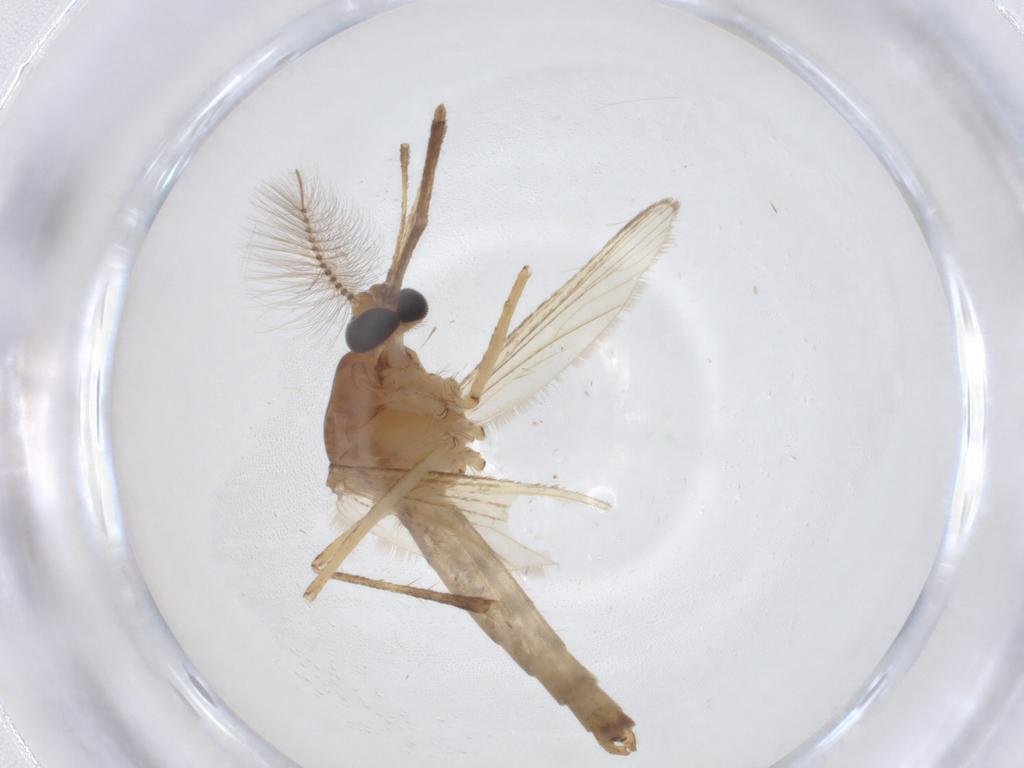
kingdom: Animalia
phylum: Arthropoda
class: Insecta
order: Diptera
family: Psychodidae
